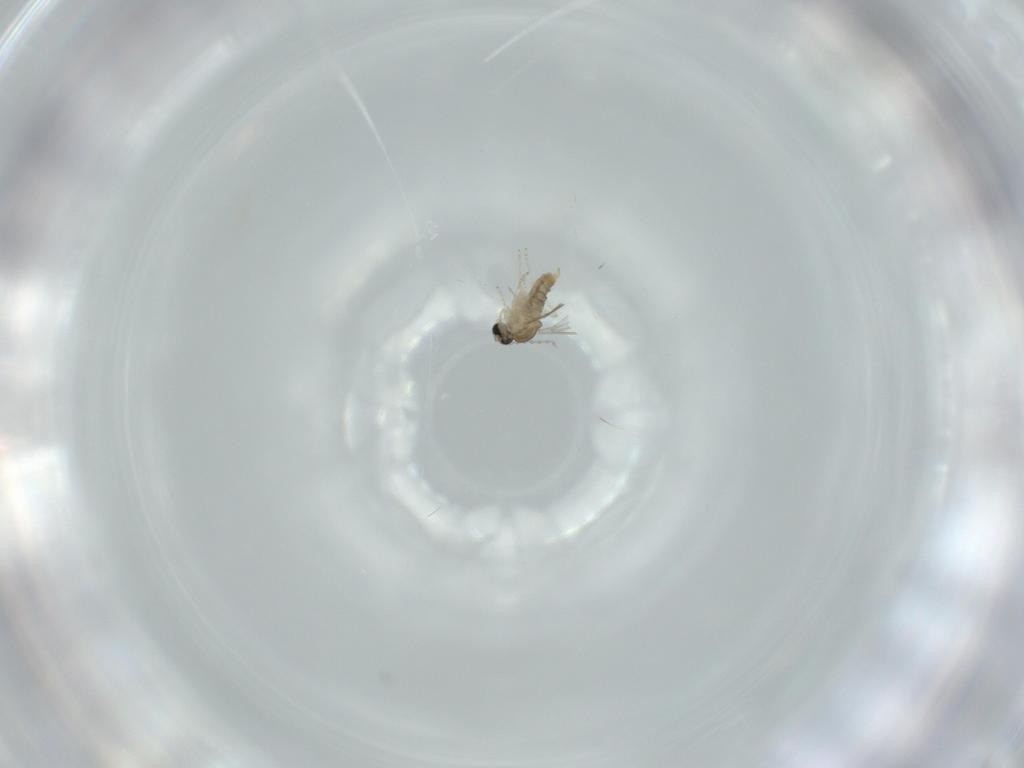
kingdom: Animalia
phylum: Arthropoda
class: Insecta
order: Diptera
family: Cecidomyiidae
